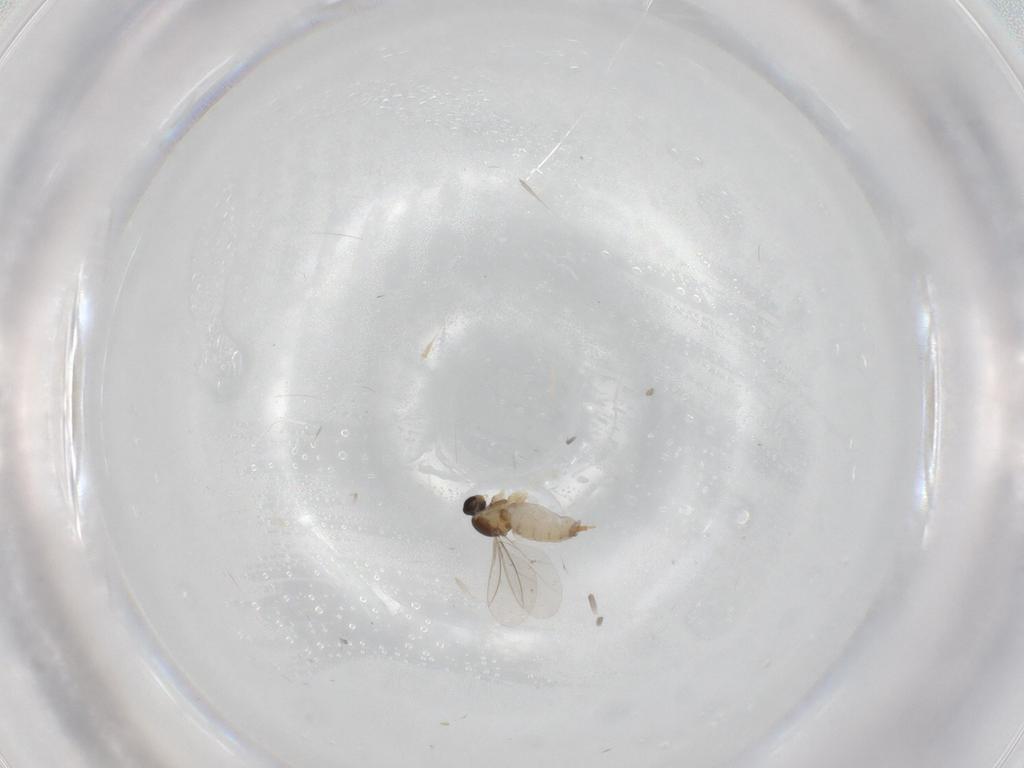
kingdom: Animalia
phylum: Arthropoda
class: Insecta
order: Diptera
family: Cecidomyiidae
